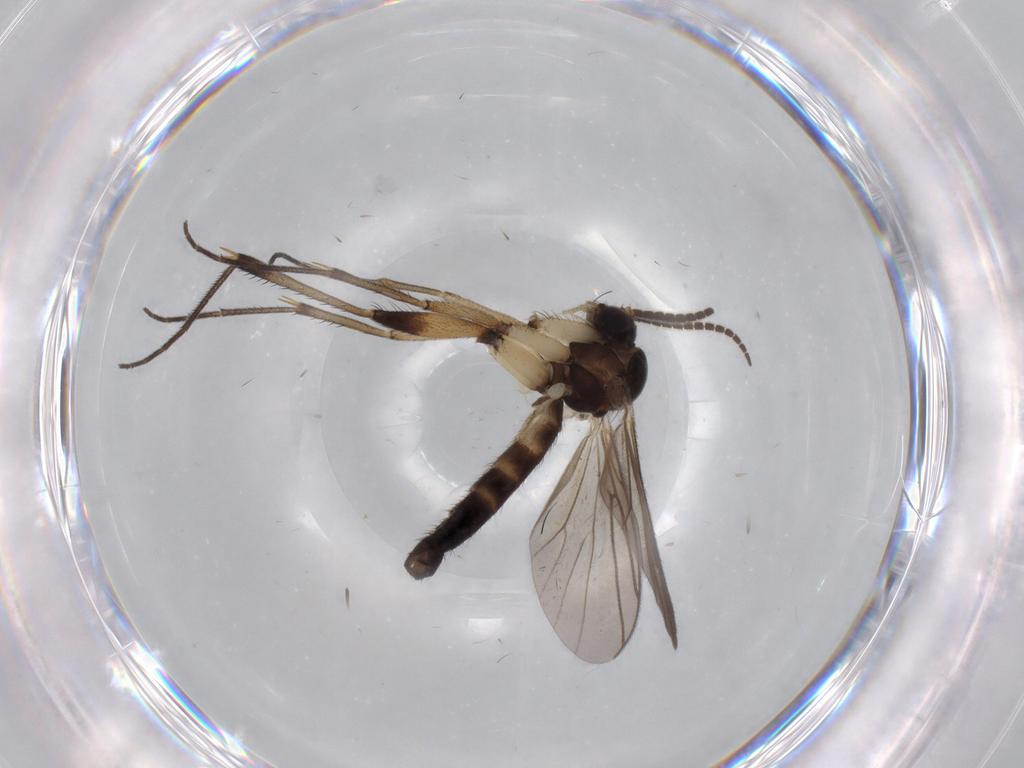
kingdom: Animalia
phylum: Arthropoda
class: Insecta
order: Diptera
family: Mycetophilidae
